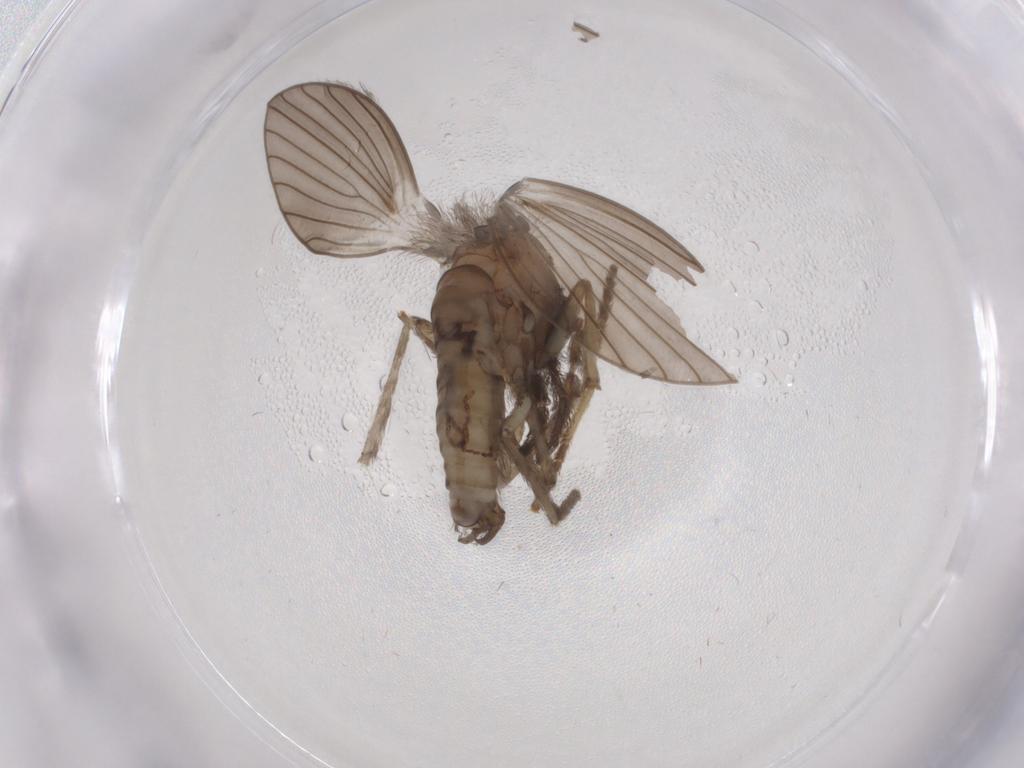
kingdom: Animalia
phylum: Arthropoda
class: Insecta
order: Diptera
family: Psychodidae
